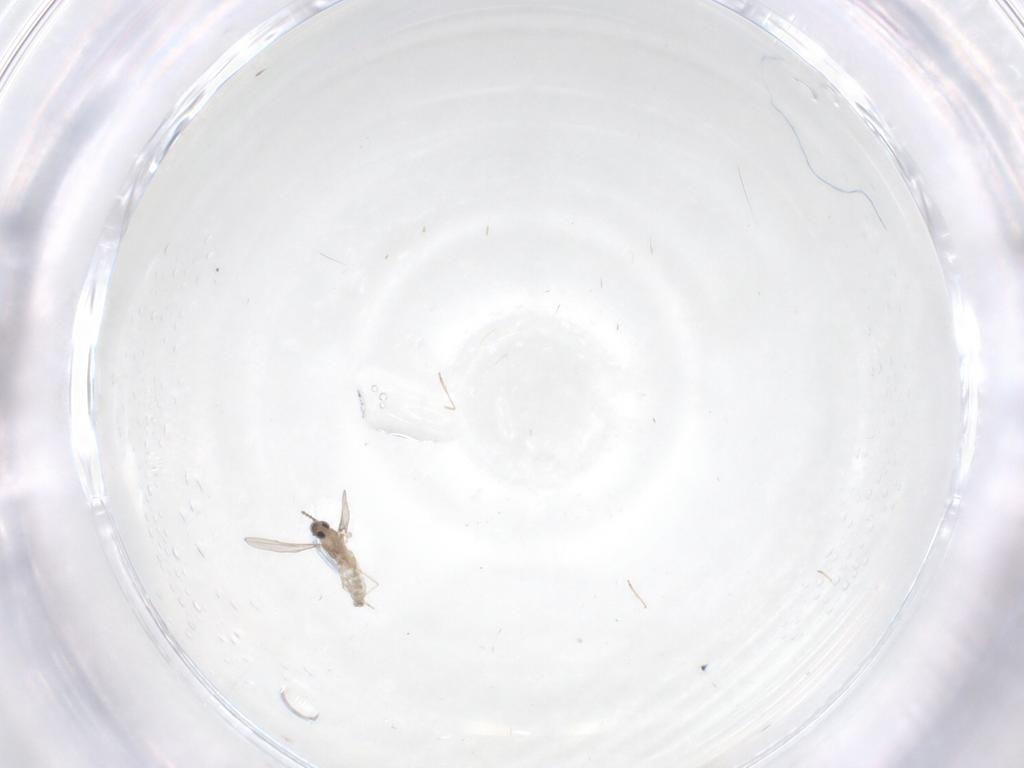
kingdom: Animalia
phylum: Arthropoda
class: Insecta
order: Diptera
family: Cecidomyiidae
